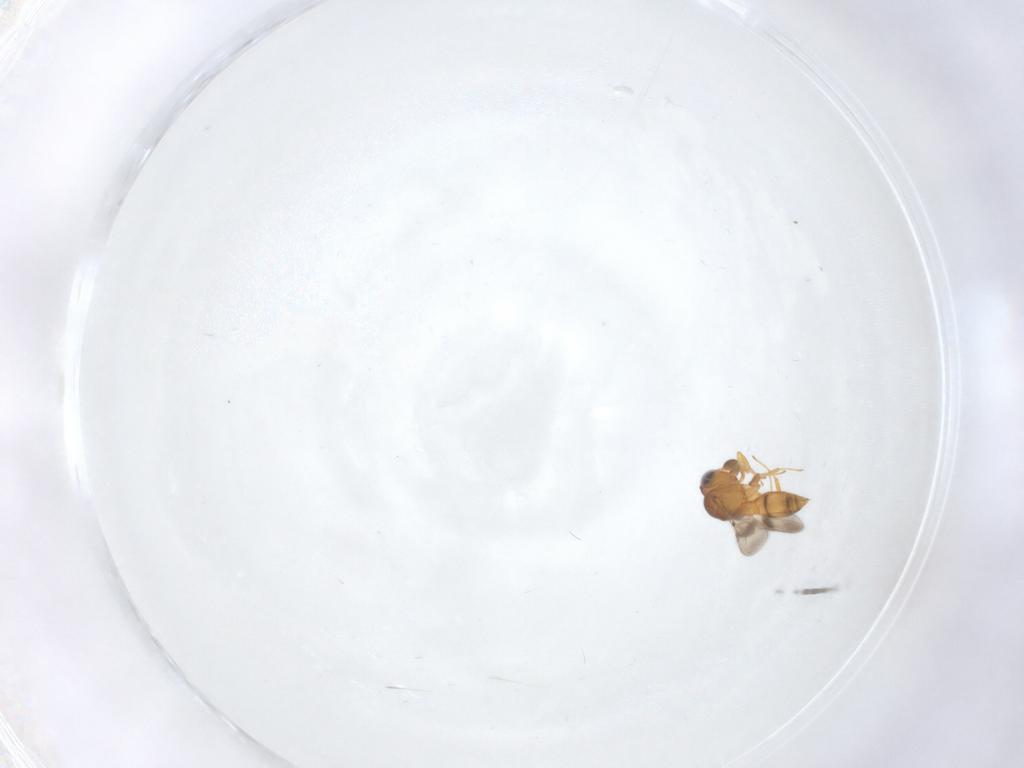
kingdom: Animalia
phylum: Arthropoda
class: Insecta
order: Hymenoptera
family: Scelionidae
